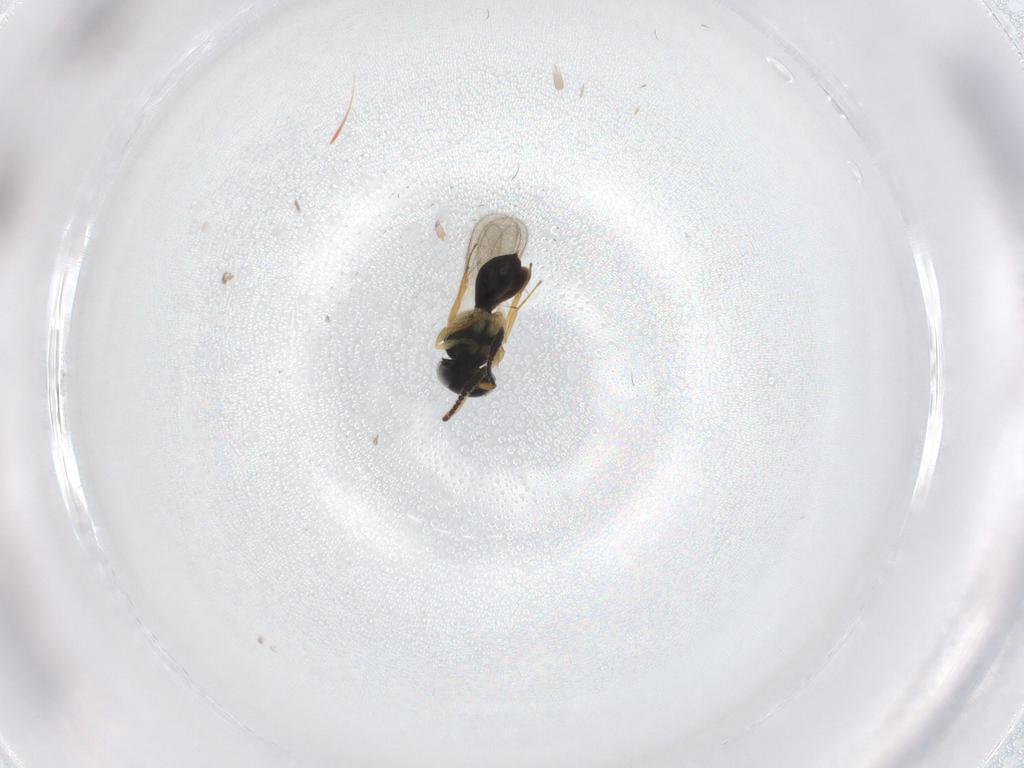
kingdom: Animalia
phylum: Arthropoda
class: Insecta
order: Hymenoptera
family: Scelionidae
